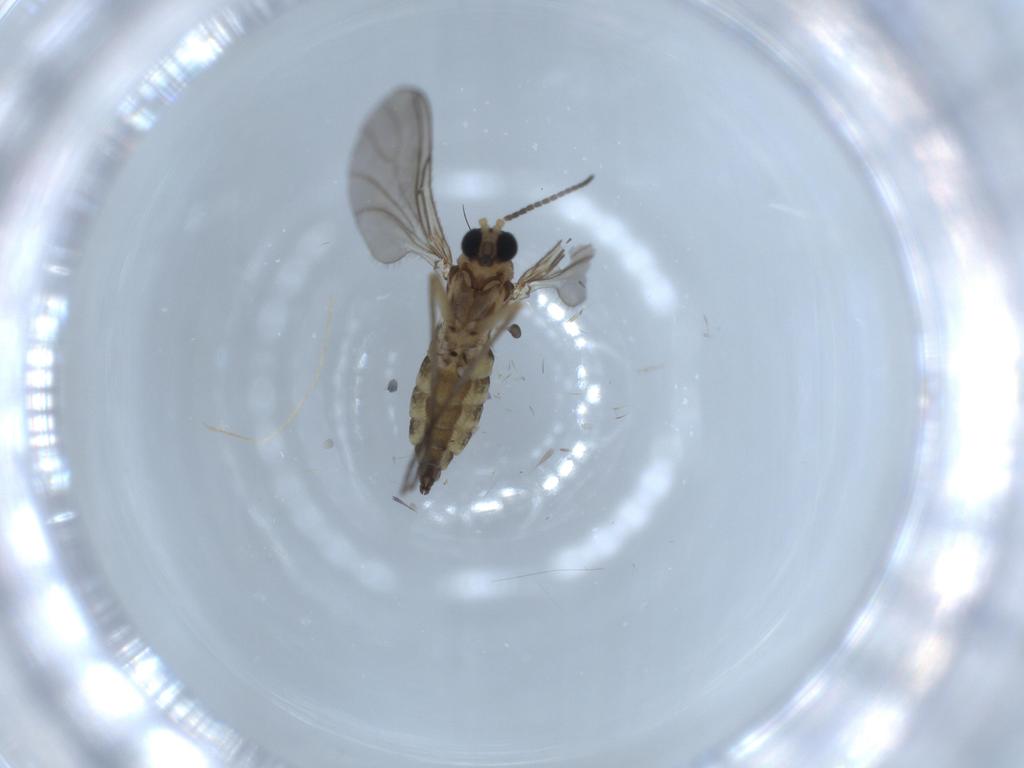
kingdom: Animalia
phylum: Arthropoda
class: Insecta
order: Diptera
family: Sciaridae
